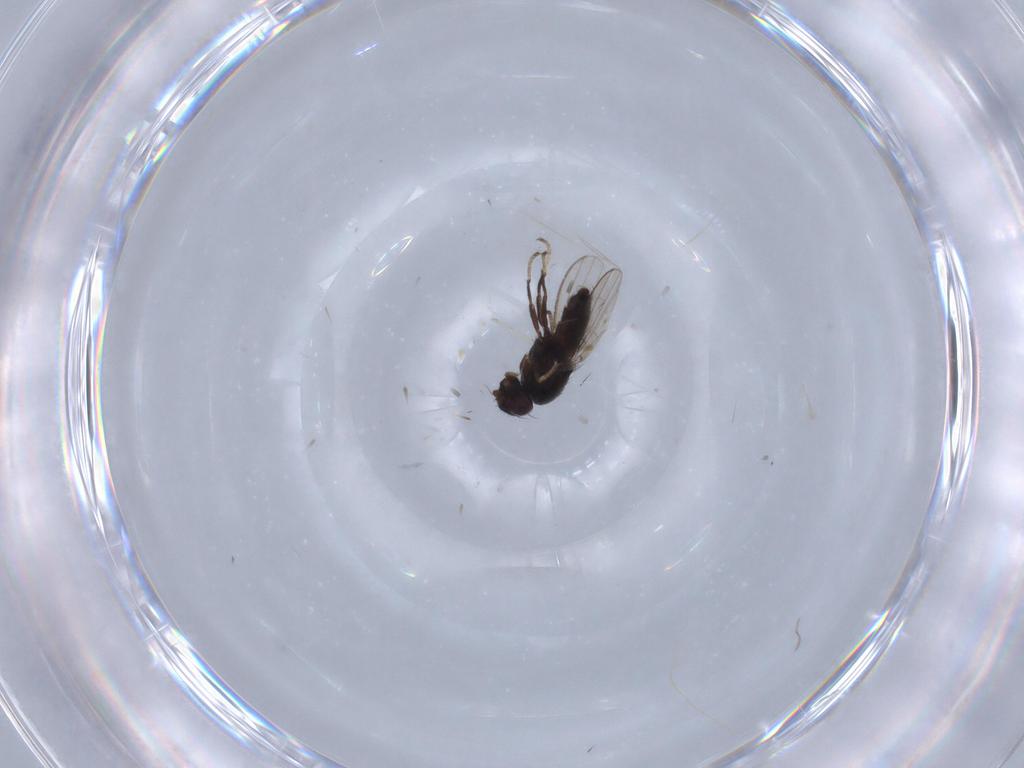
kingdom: Animalia
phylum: Arthropoda
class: Insecta
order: Diptera
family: Milichiidae
